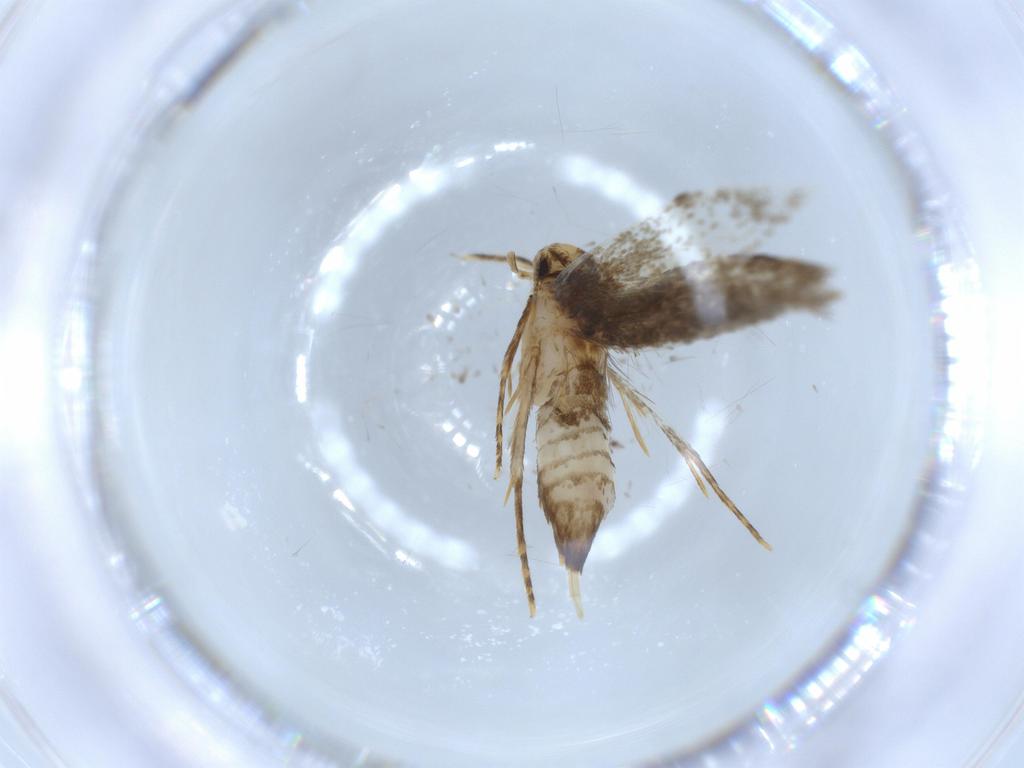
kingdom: Animalia
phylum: Arthropoda
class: Insecta
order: Lepidoptera
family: Tineidae
